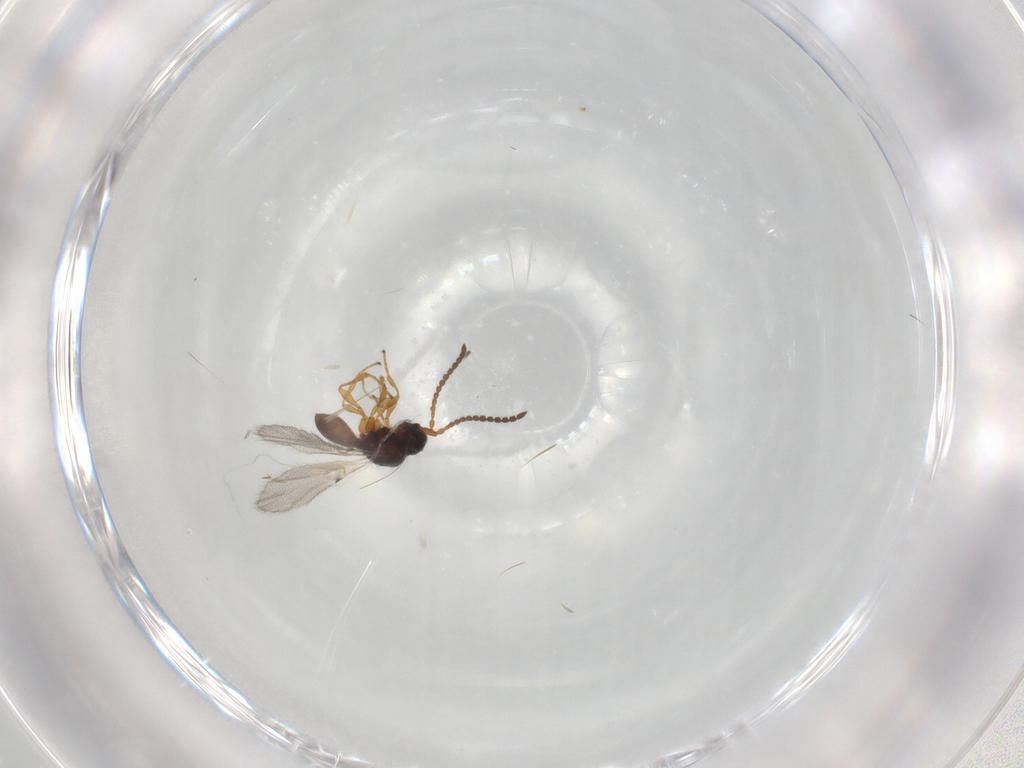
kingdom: Animalia
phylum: Arthropoda
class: Insecta
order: Hymenoptera
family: Diapriidae
